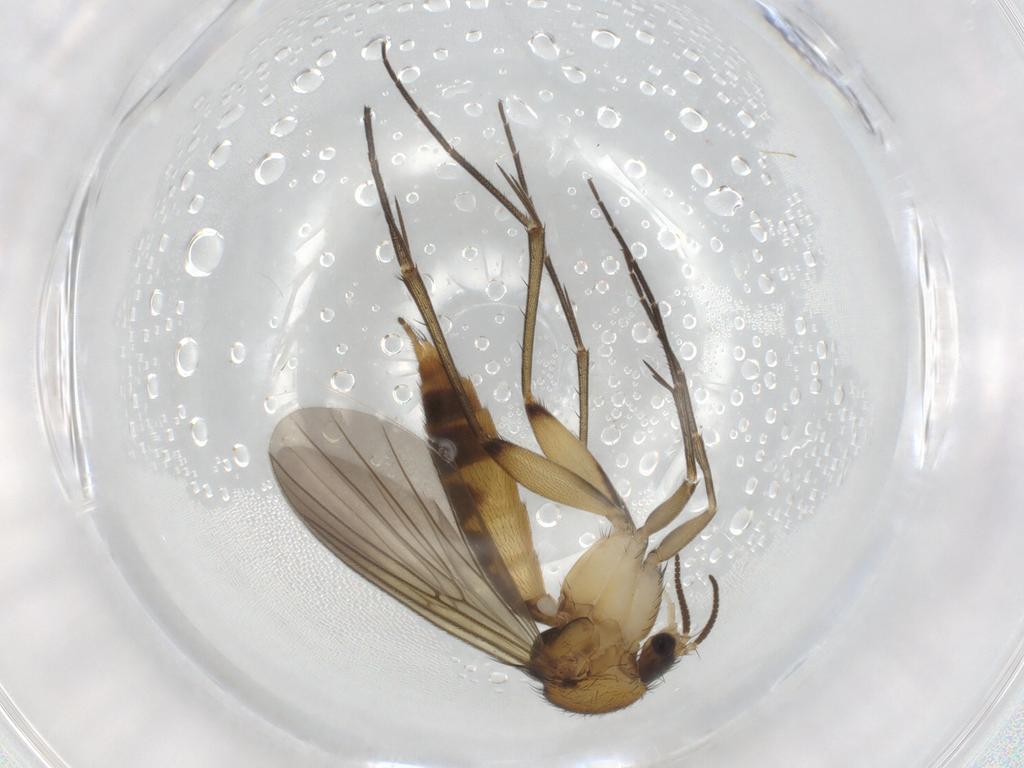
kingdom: Animalia
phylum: Arthropoda
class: Insecta
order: Diptera
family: Mycetophilidae
